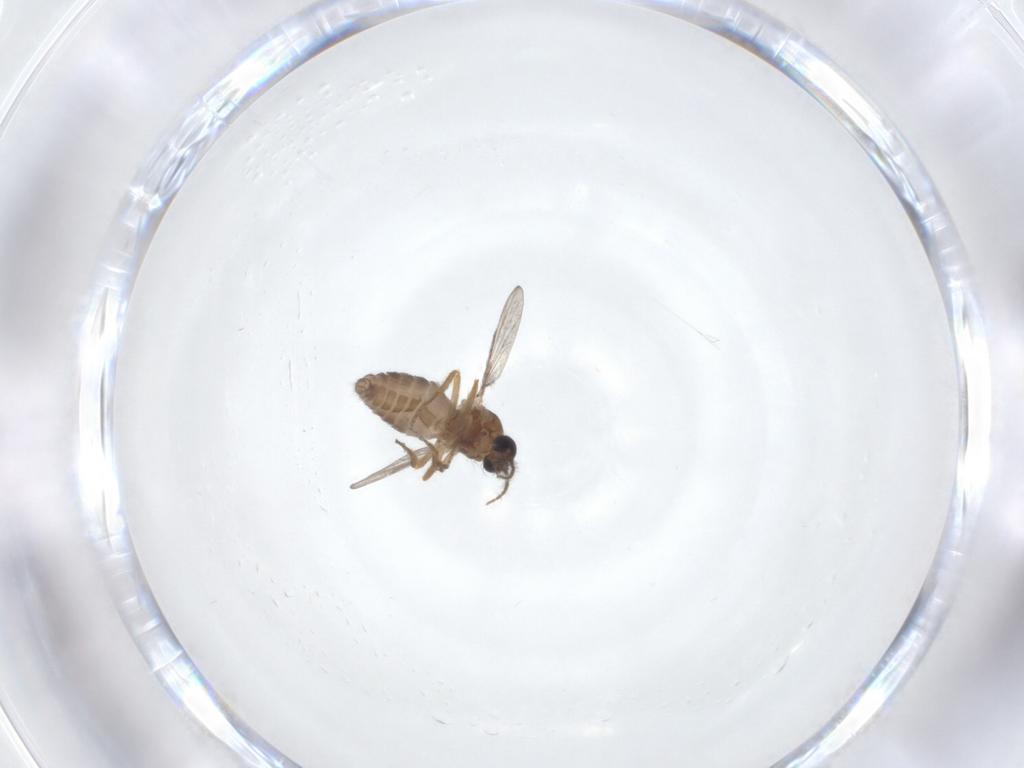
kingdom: Animalia
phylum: Arthropoda
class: Insecta
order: Diptera
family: Ceratopogonidae
